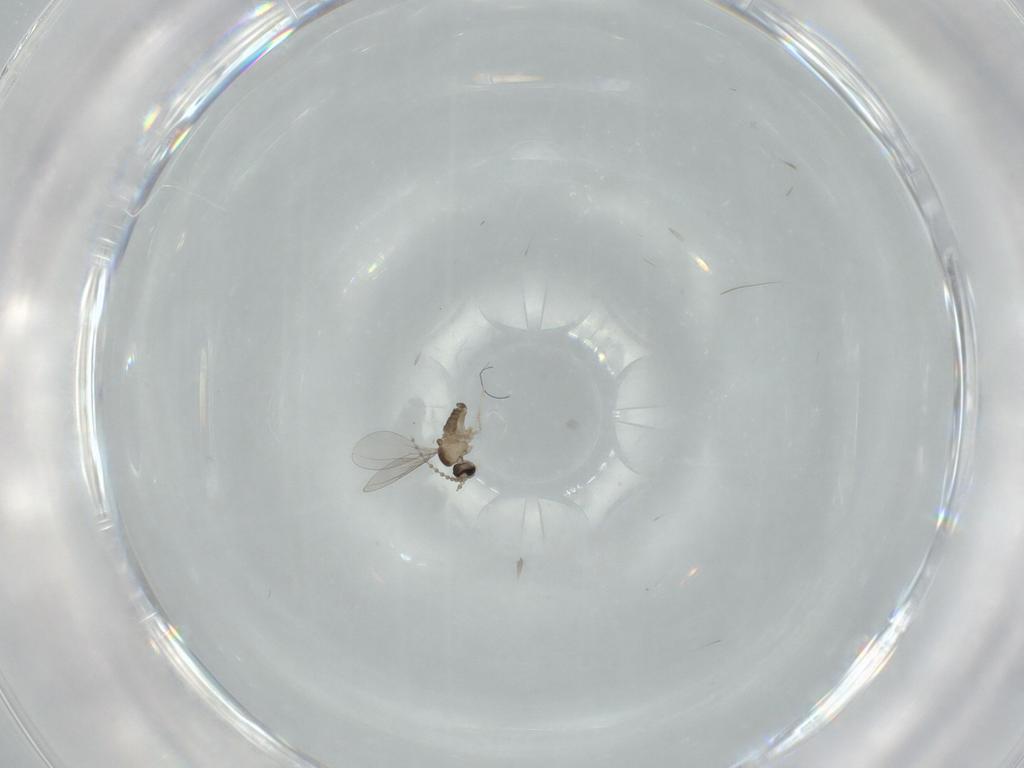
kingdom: Animalia
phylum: Arthropoda
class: Insecta
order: Diptera
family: Cecidomyiidae
